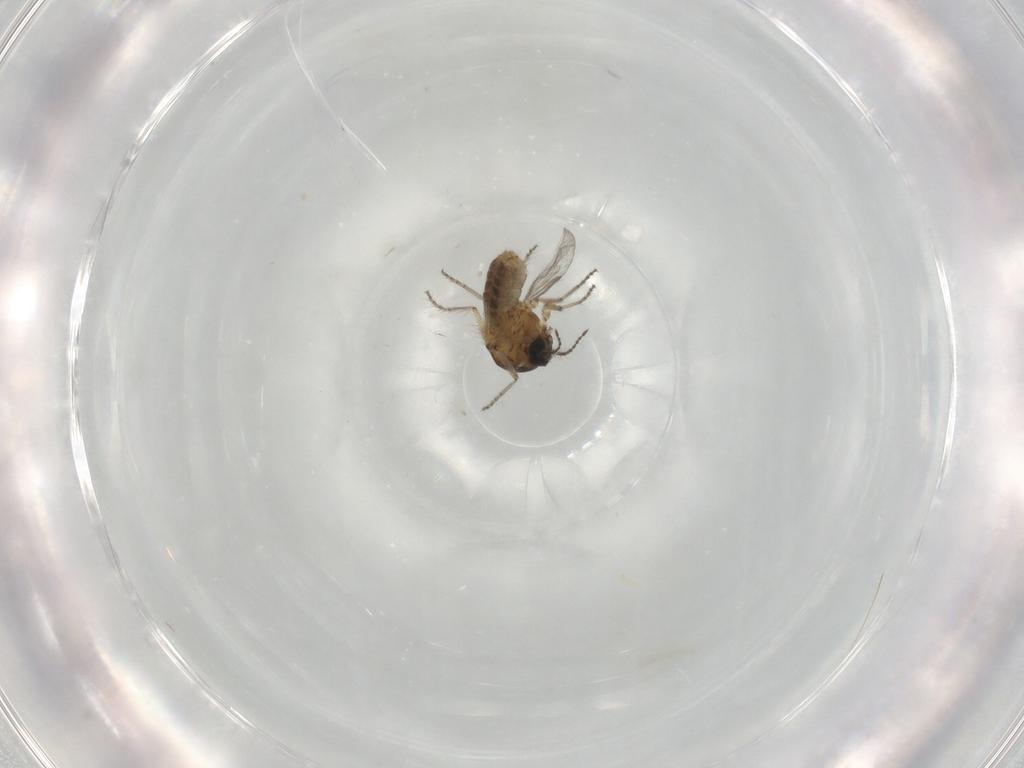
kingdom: Animalia
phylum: Arthropoda
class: Insecta
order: Diptera
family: Ceratopogonidae
